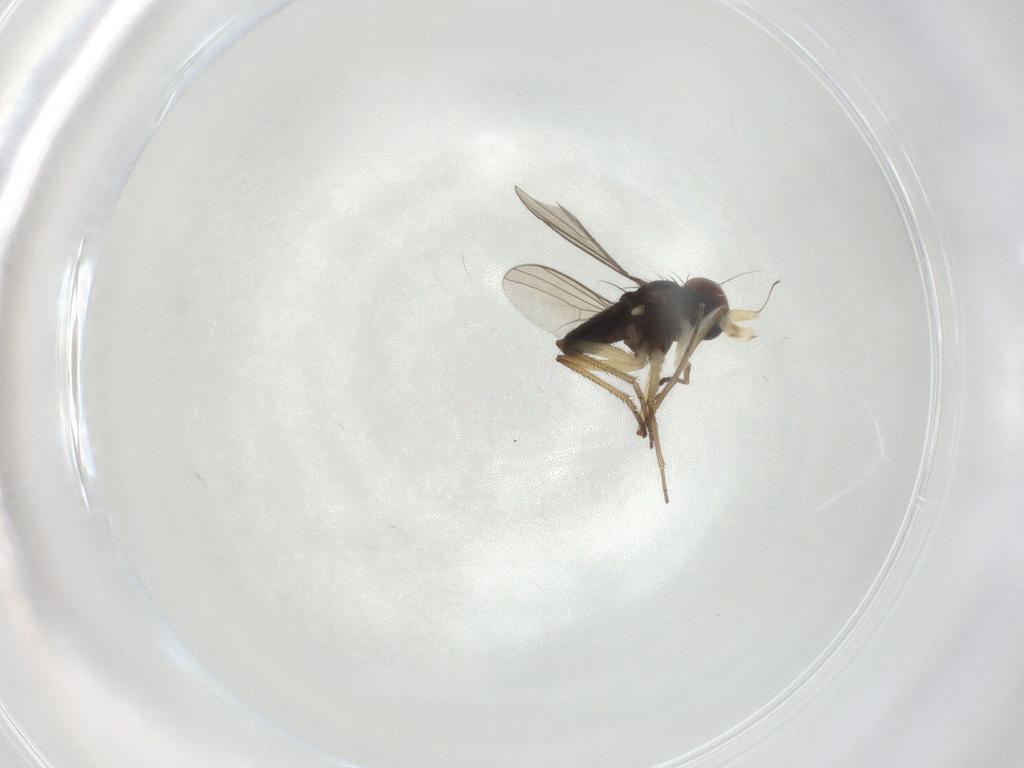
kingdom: Animalia
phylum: Arthropoda
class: Insecta
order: Diptera
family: Dolichopodidae
